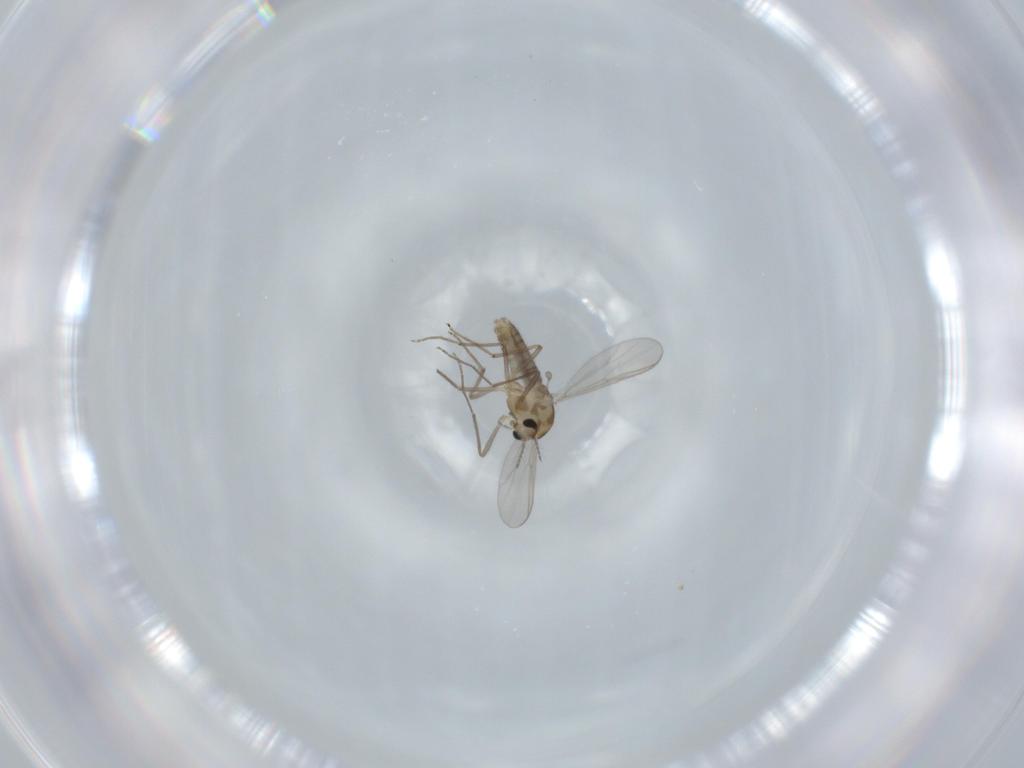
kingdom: Animalia
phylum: Arthropoda
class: Insecta
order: Diptera
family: Chironomidae
